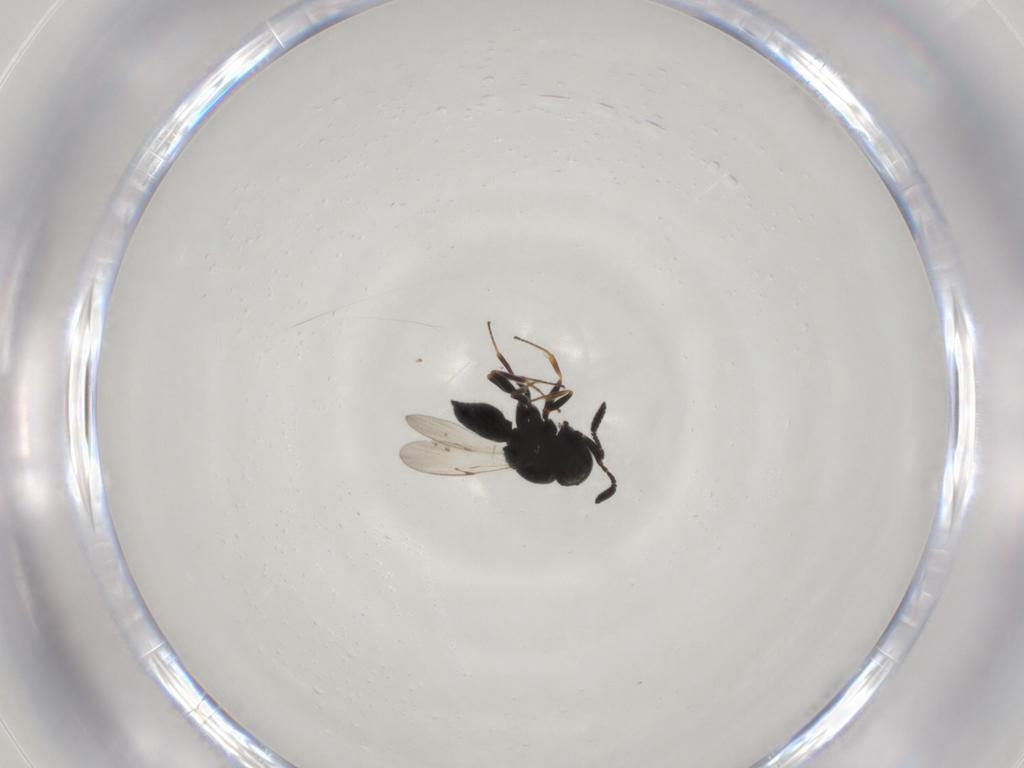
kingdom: Animalia
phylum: Arthropoda
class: Insecta
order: Hymenoptera
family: Scelionidae
